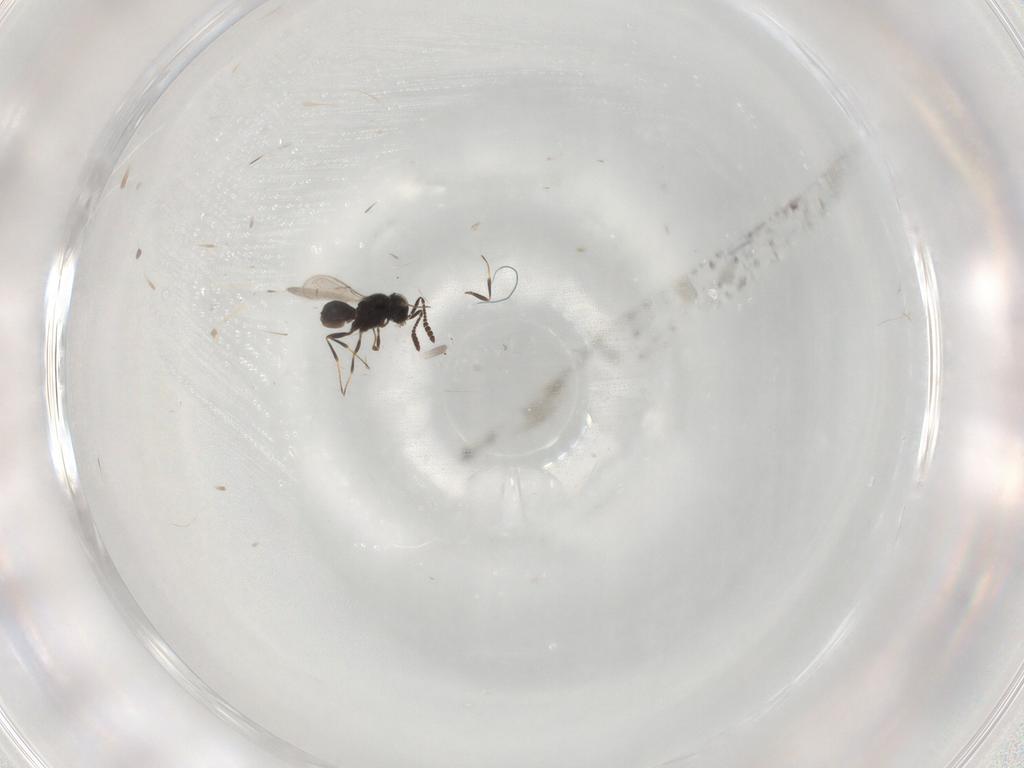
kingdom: Animalia
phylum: Arthropoda
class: Insecta
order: Hymenoptera
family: Scelionidae
